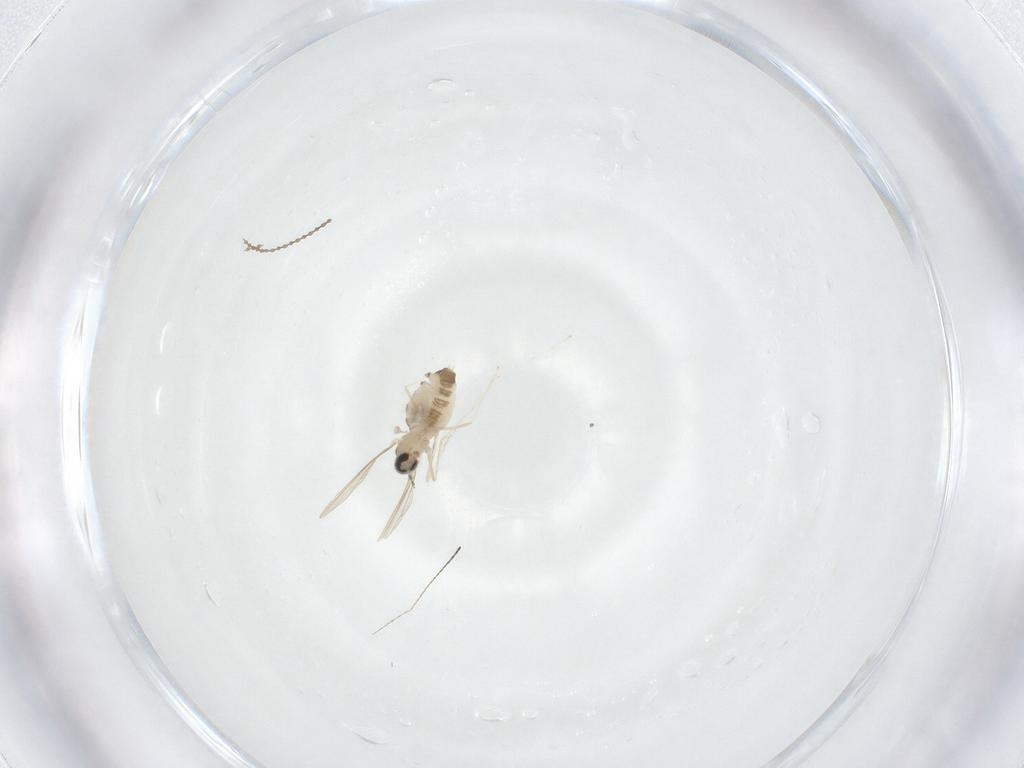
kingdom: Animalia
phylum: Arthropoda
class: Insecta
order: Diptera
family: Cecidomyiidae
